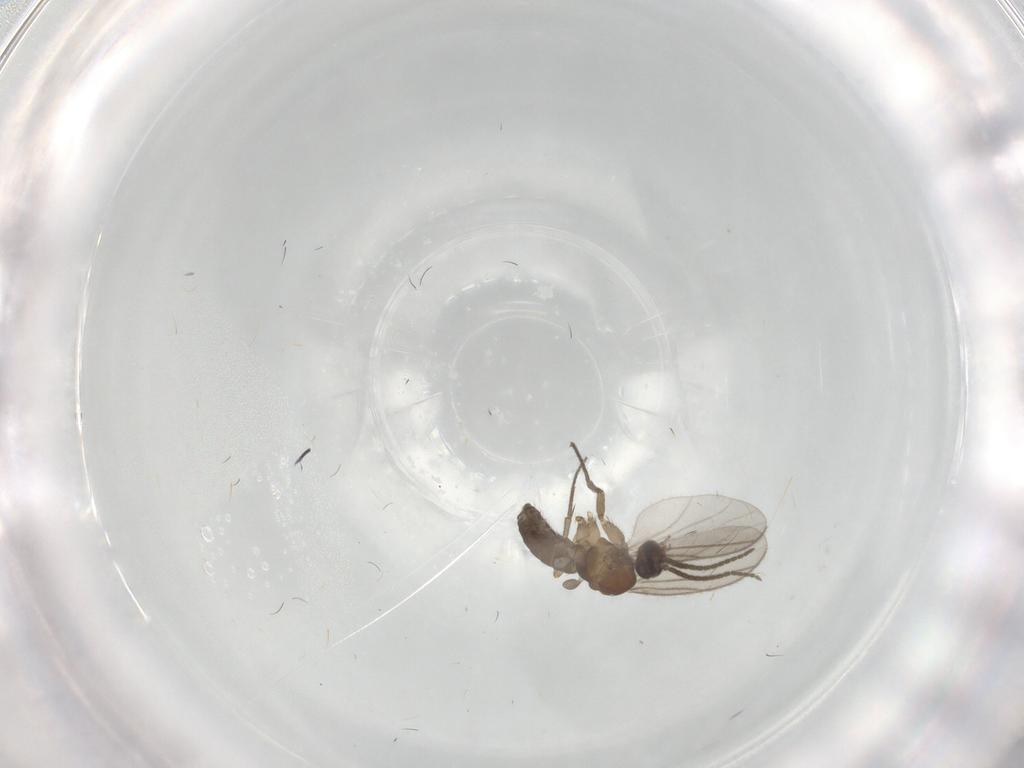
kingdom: Animalia
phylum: Arthropoda
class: Insecta
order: Diptera
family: Sciaridae
